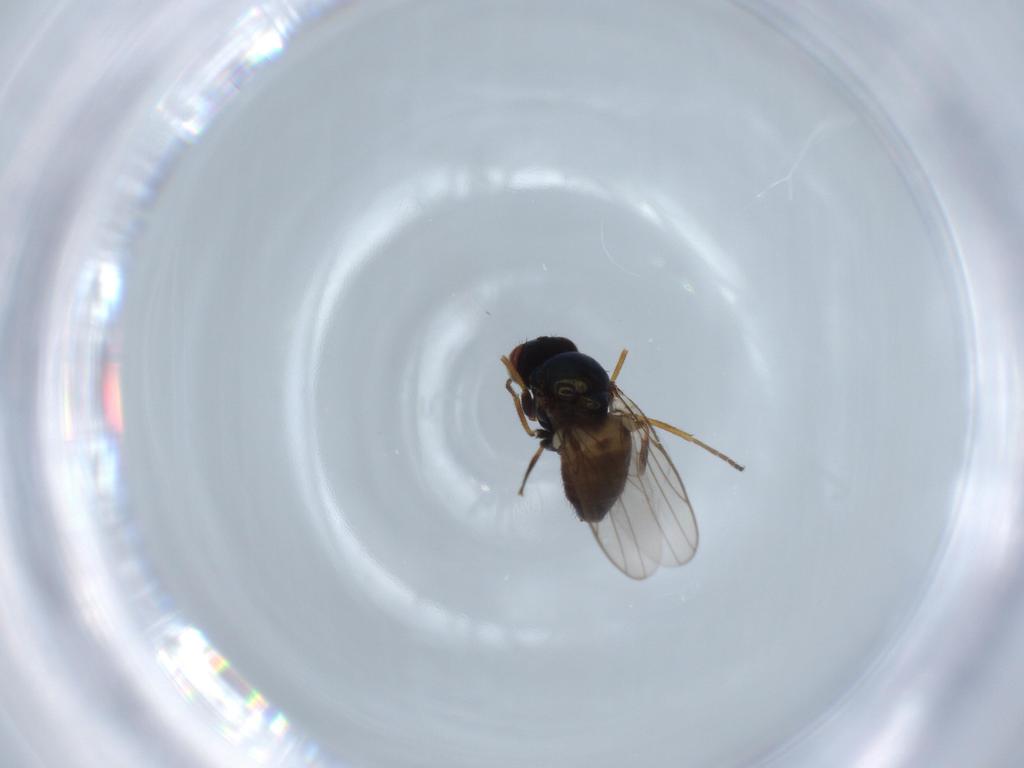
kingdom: Animalia
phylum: Arthropoda
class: Insecta
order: Diptera
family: Chloropidae
